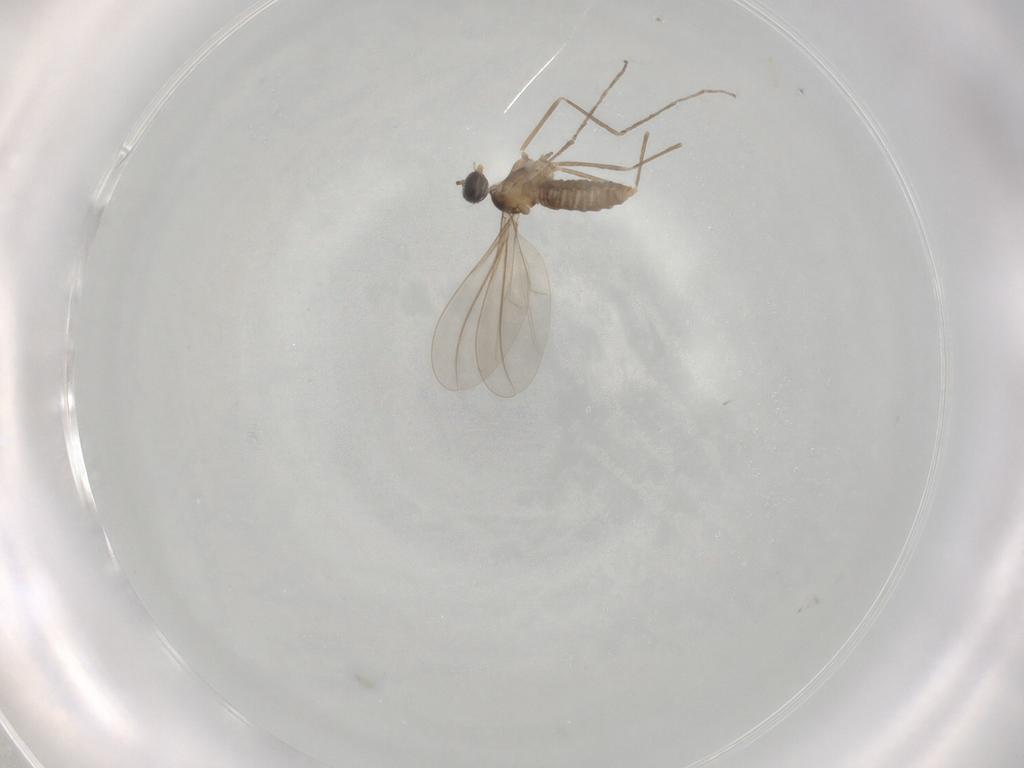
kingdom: Animalia
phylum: Arthropoda
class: Insecta
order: Diptera
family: Cecidomyiidae
